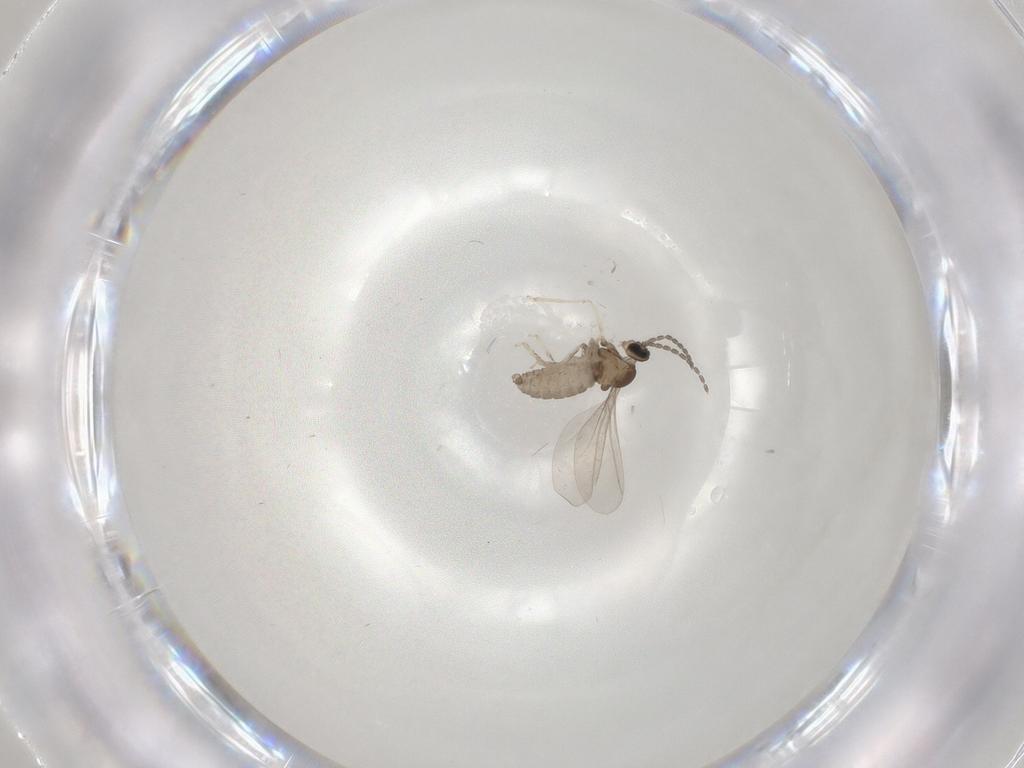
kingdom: Animalia
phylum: Arthropoda
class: Insecta
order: Diptera
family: Cecidomyiidae
